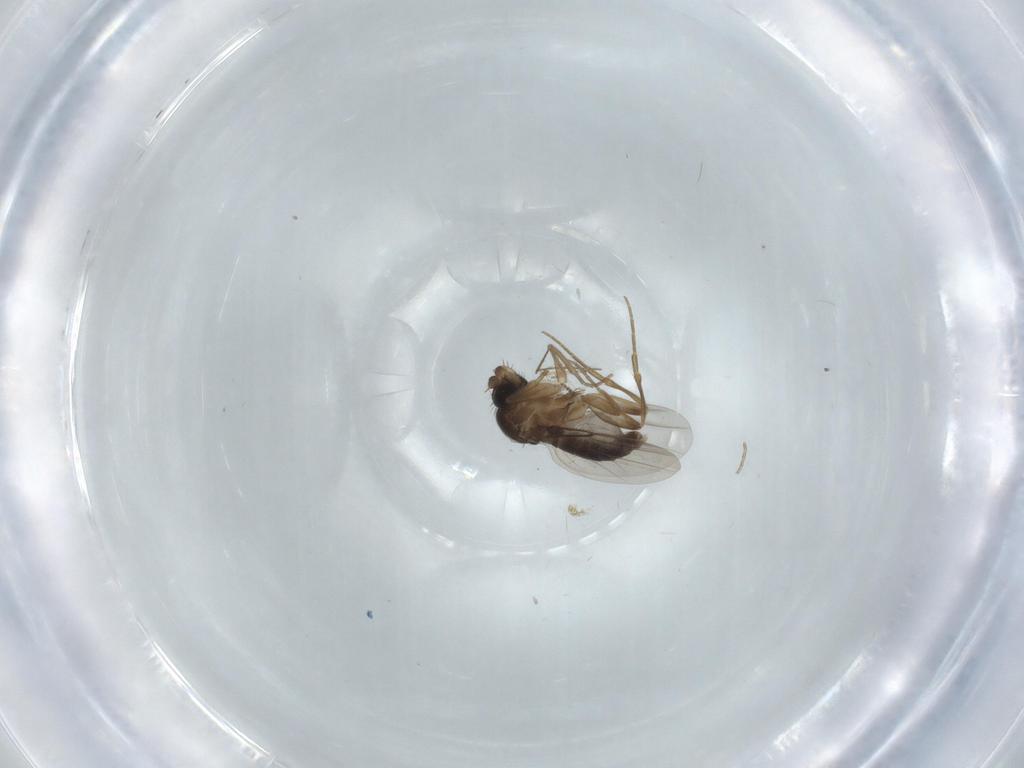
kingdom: Animalia
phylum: Arthropoda
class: Insecta
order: Diptera
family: Phoridae
